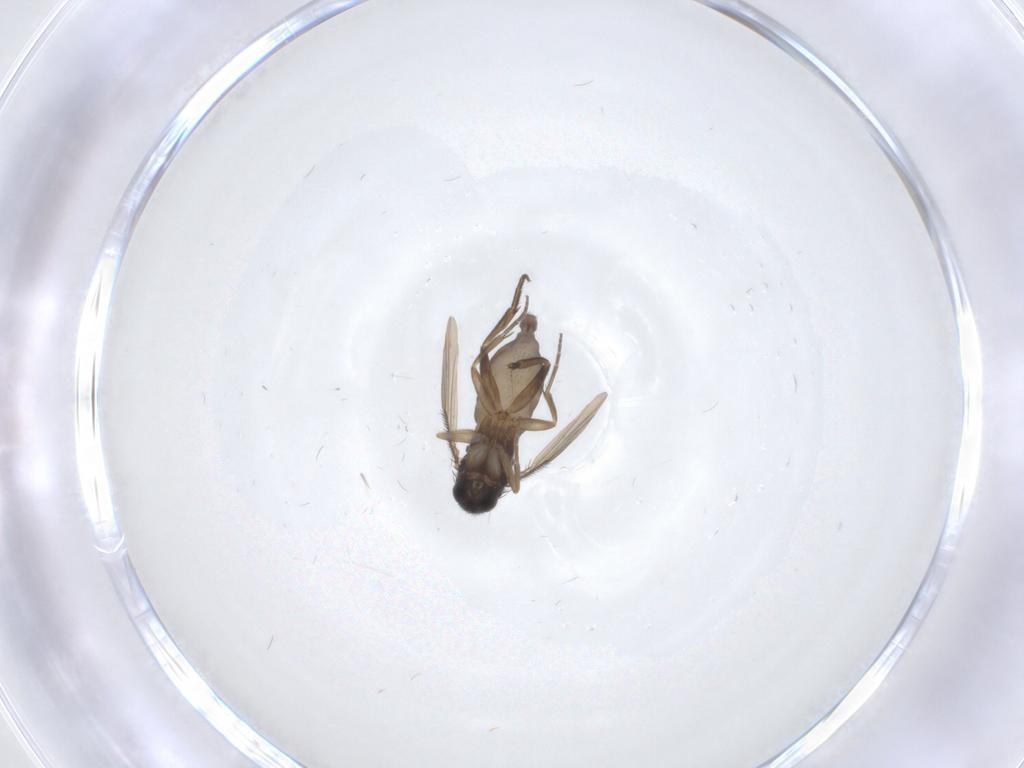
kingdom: Animalia
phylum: Arthropoda
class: Insecta
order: Diptera
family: Phoridae
